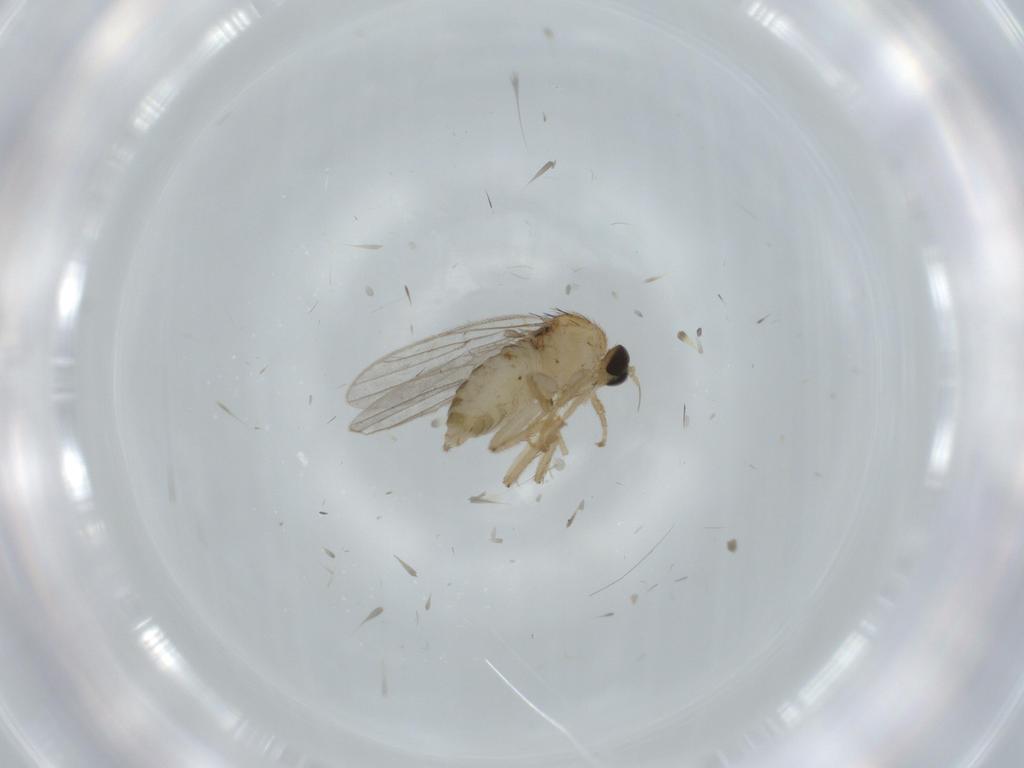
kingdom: Animalia
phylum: Arthropoda
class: Insecta
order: Diptera
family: Hybotidae
